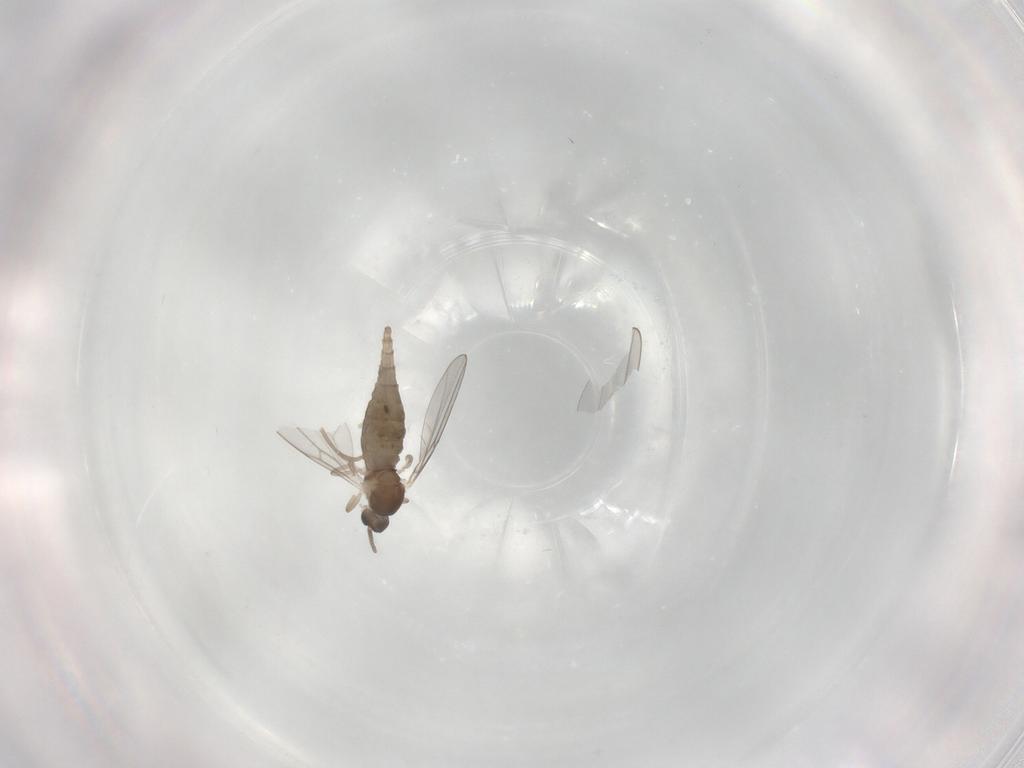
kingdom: Animalia
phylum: Arthropoda
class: Insecta
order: Diptera
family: Cecidomyiidae
